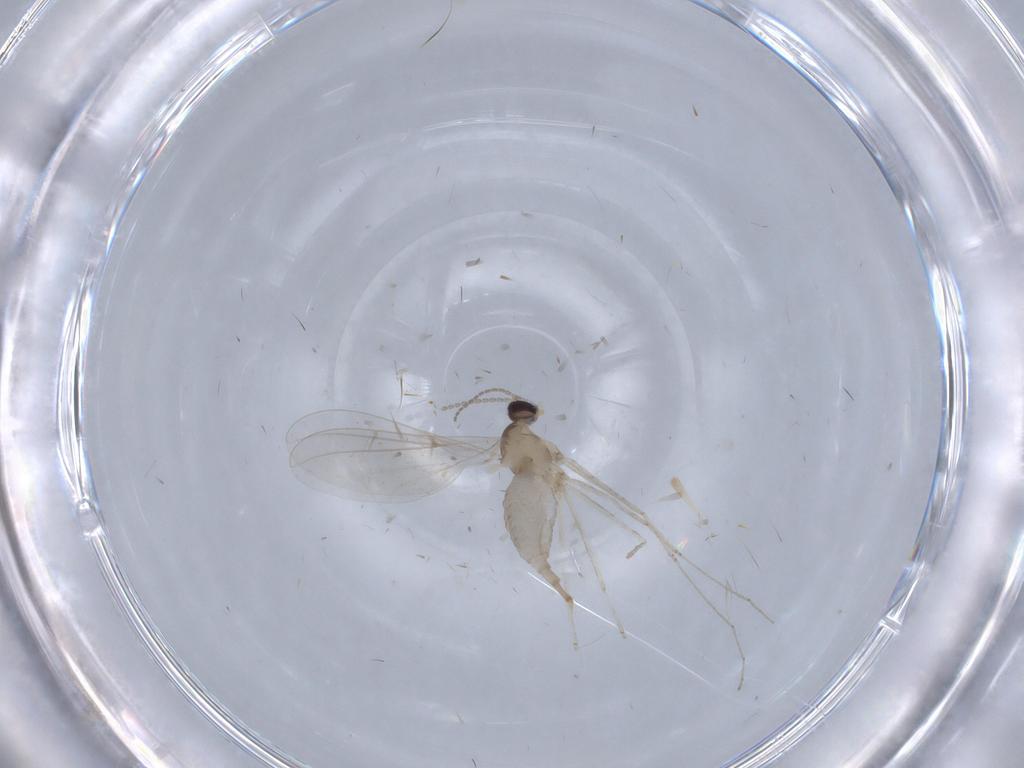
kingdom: Animalia
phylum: Arthropoda
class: Insecta
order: Diptera
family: Cecidomyiidae
